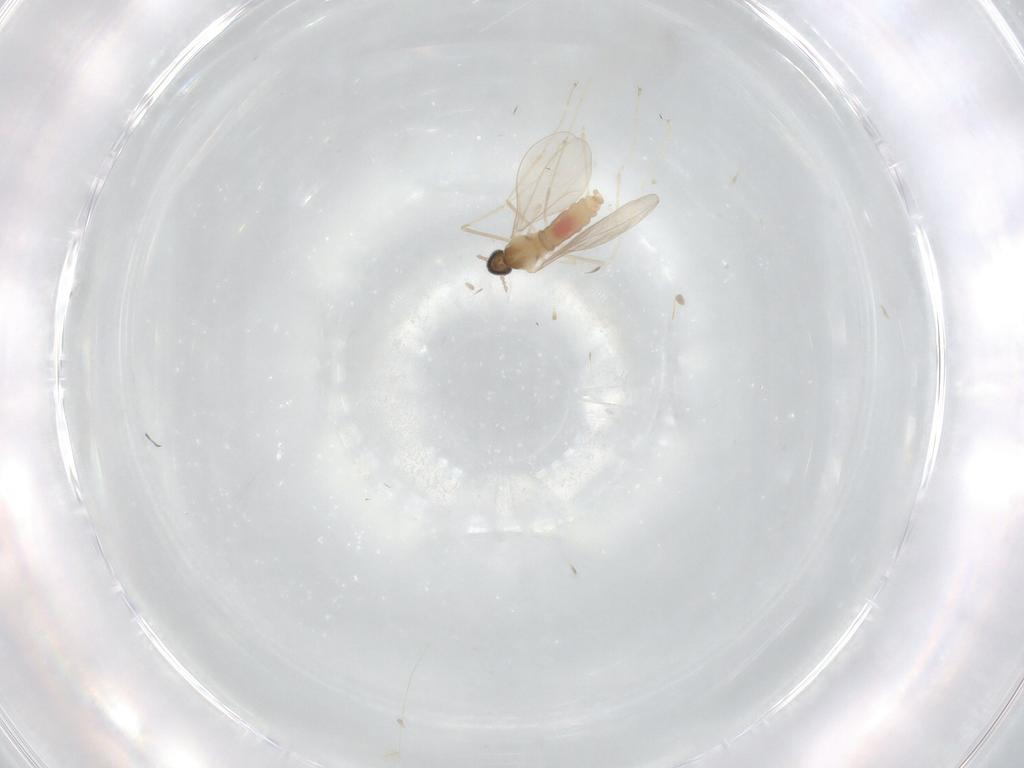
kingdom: Animalia
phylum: Arthropoda
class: Insecta
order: Diptera
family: Cecidomyiidae
